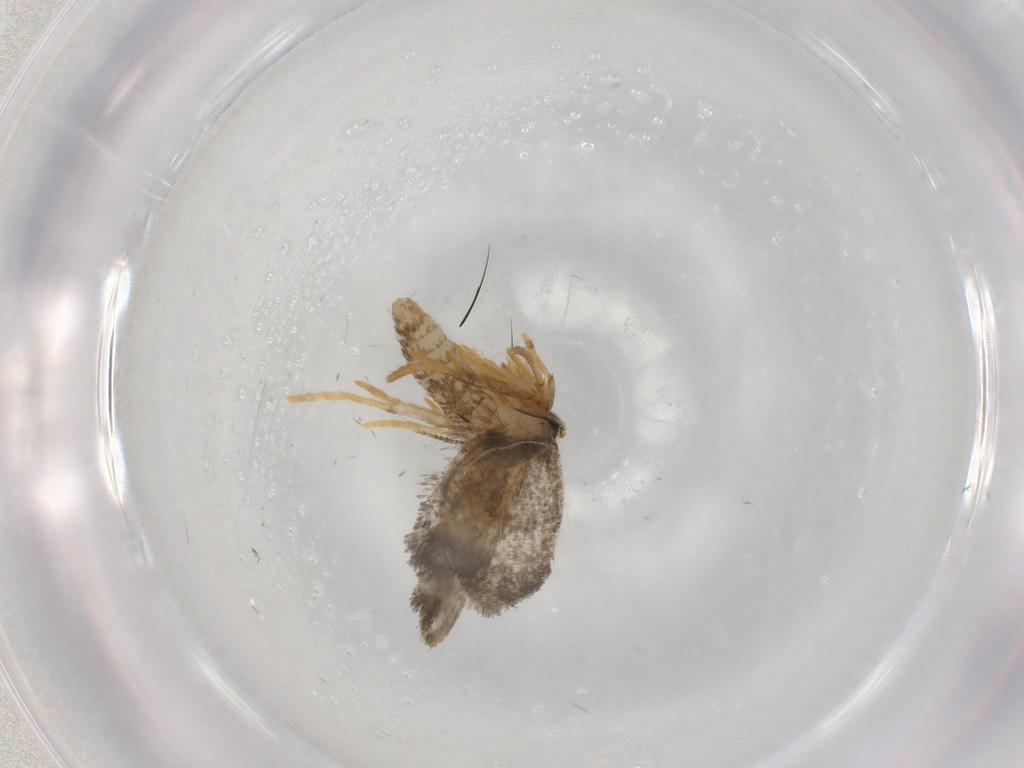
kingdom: Animalia
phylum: Arthropoda
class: Insecta
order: Lepidoptera
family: Psychidae
